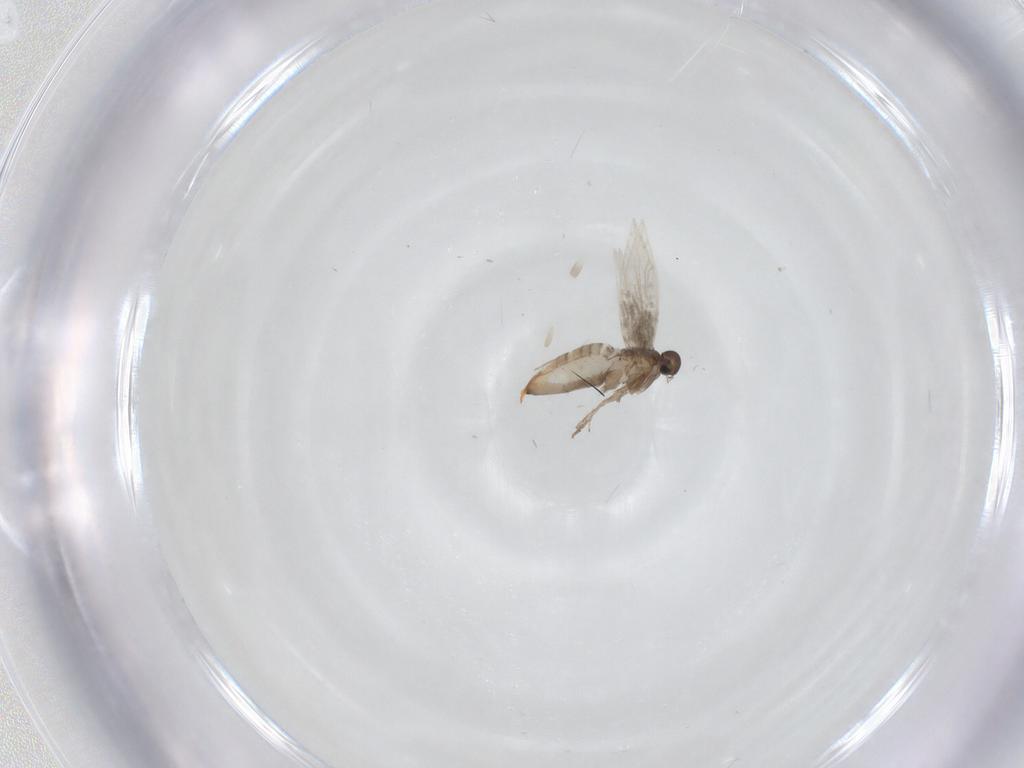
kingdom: Animalia
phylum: Arthropoda
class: Insecta
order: Lepidoptera
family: Heliozelidae
